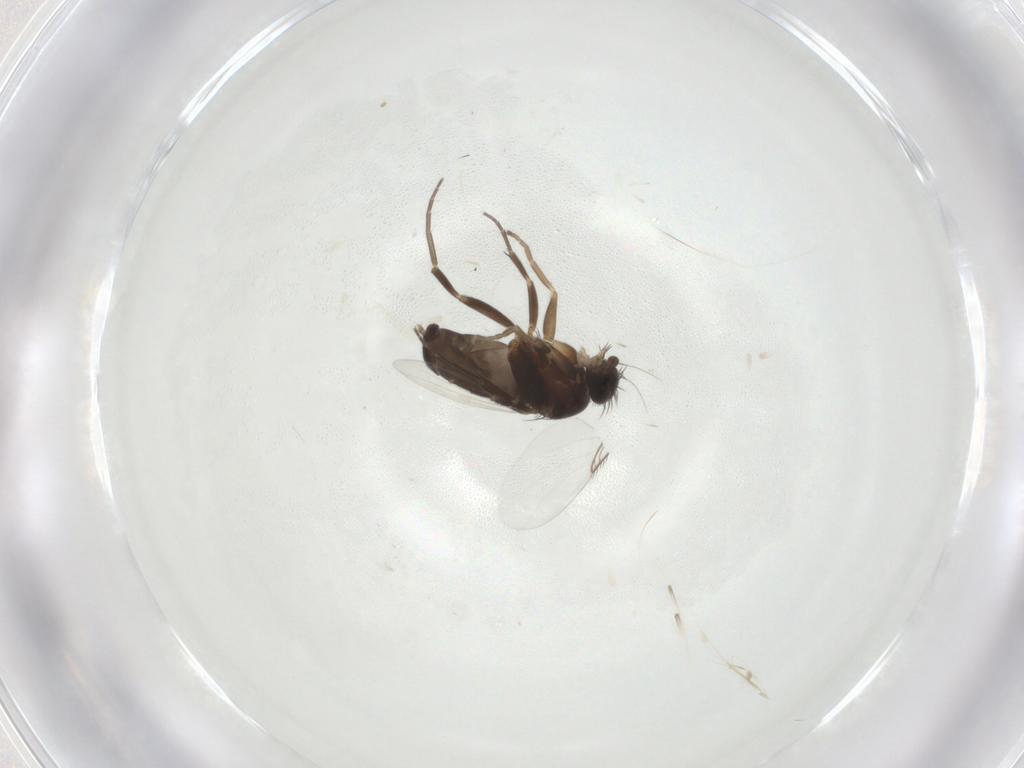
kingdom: Animalia
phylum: Arthropoda
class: Insecta
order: Diptera
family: Phoridae
